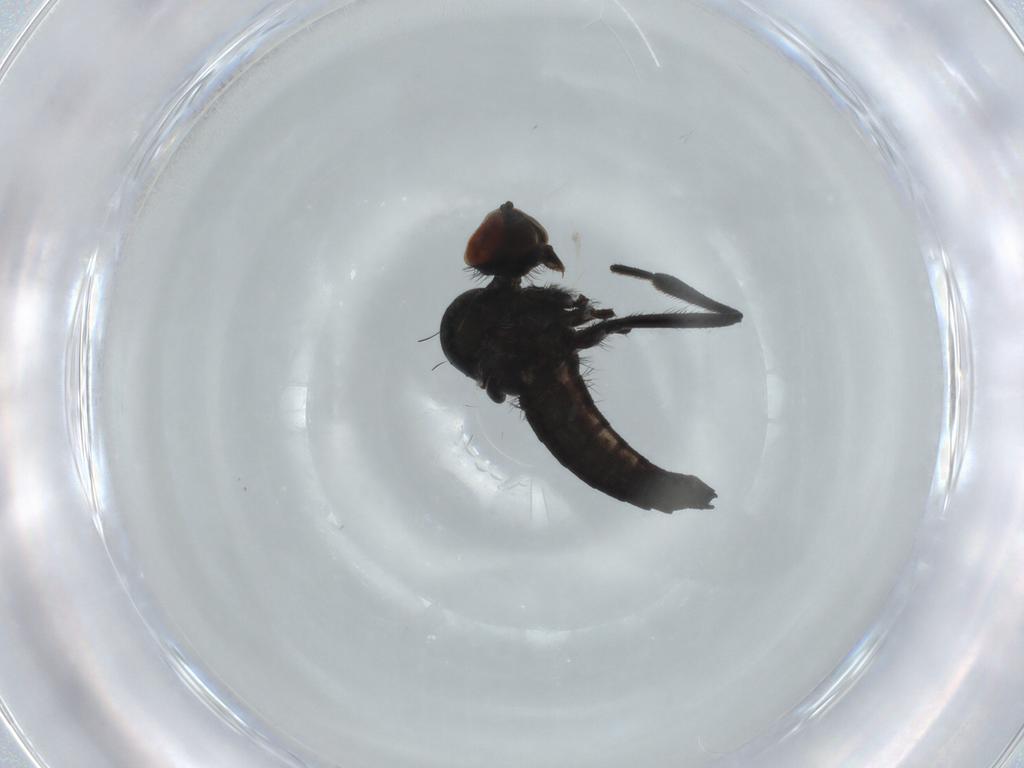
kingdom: Animalia
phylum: Arthropoda
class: Insecta
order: Diptera
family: Hybotidae
